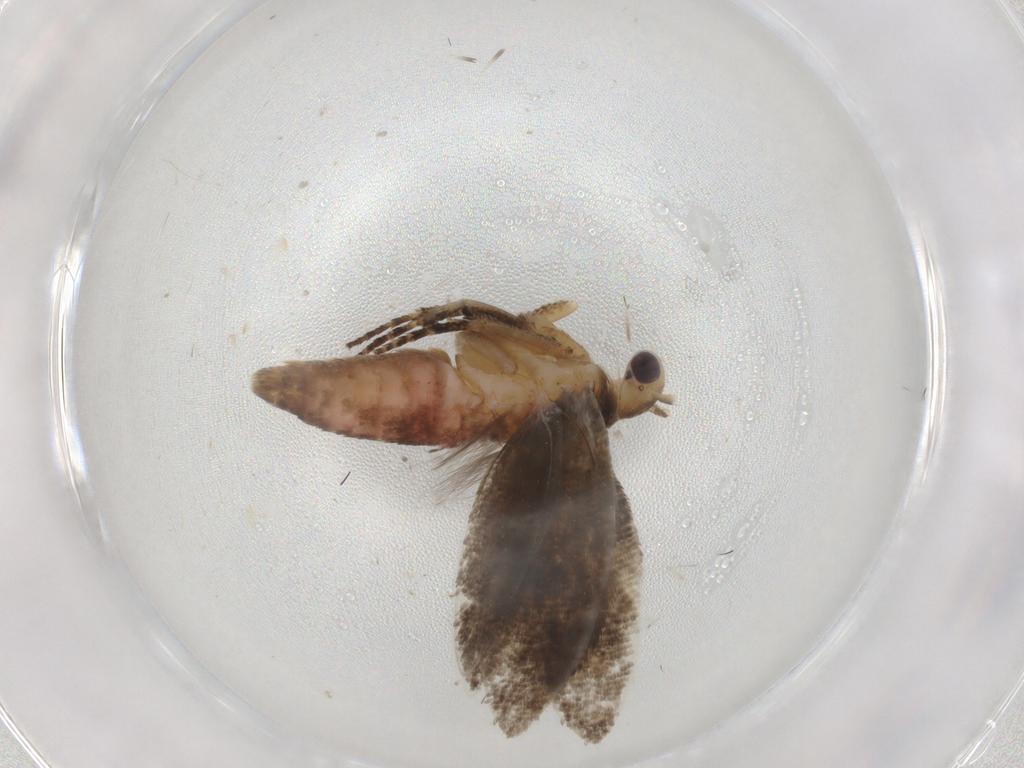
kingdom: Animalia
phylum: Arthropoda
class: Insecta
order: Lepidoptera
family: Plutellidae
